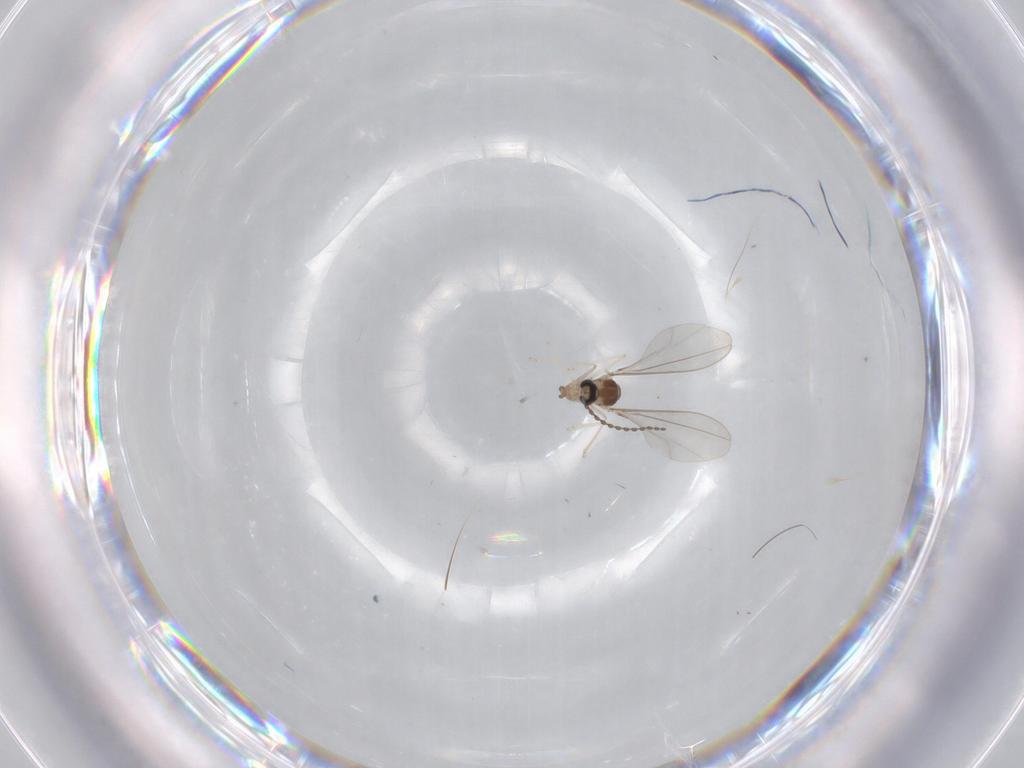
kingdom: Animalia
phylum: Arthropoda
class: Insecta
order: Diptera
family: Cecidomyiidae
